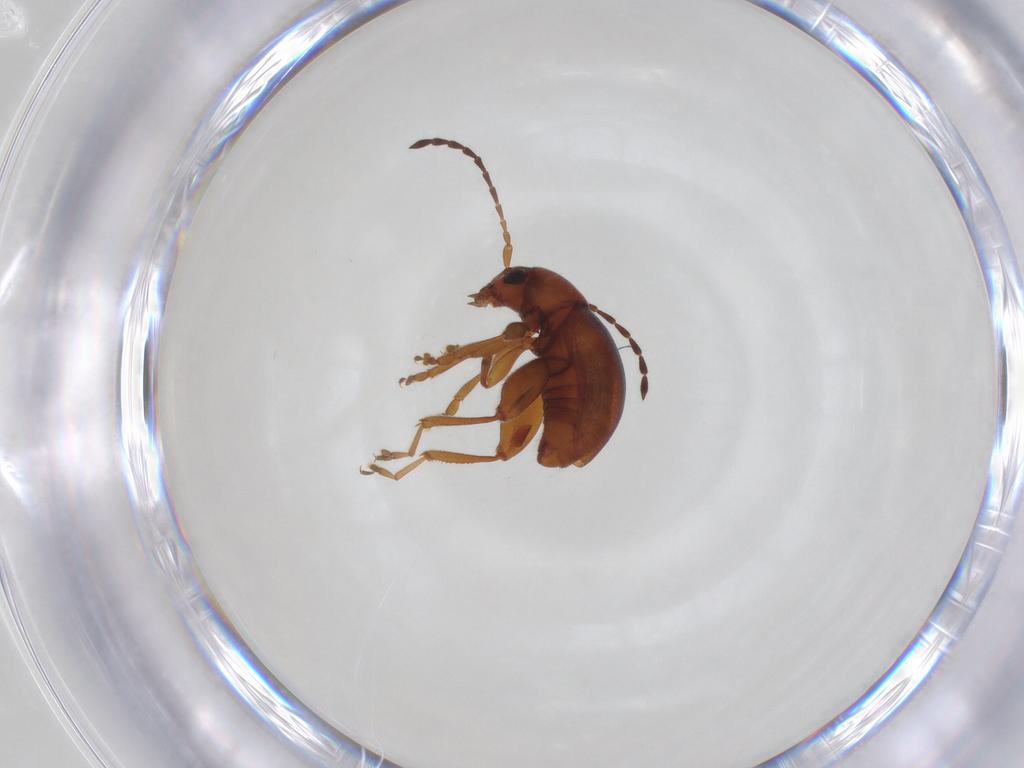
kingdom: Animalia
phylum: Arthropoda
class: Insecta
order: Coleoptera
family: Chrysomelidae
